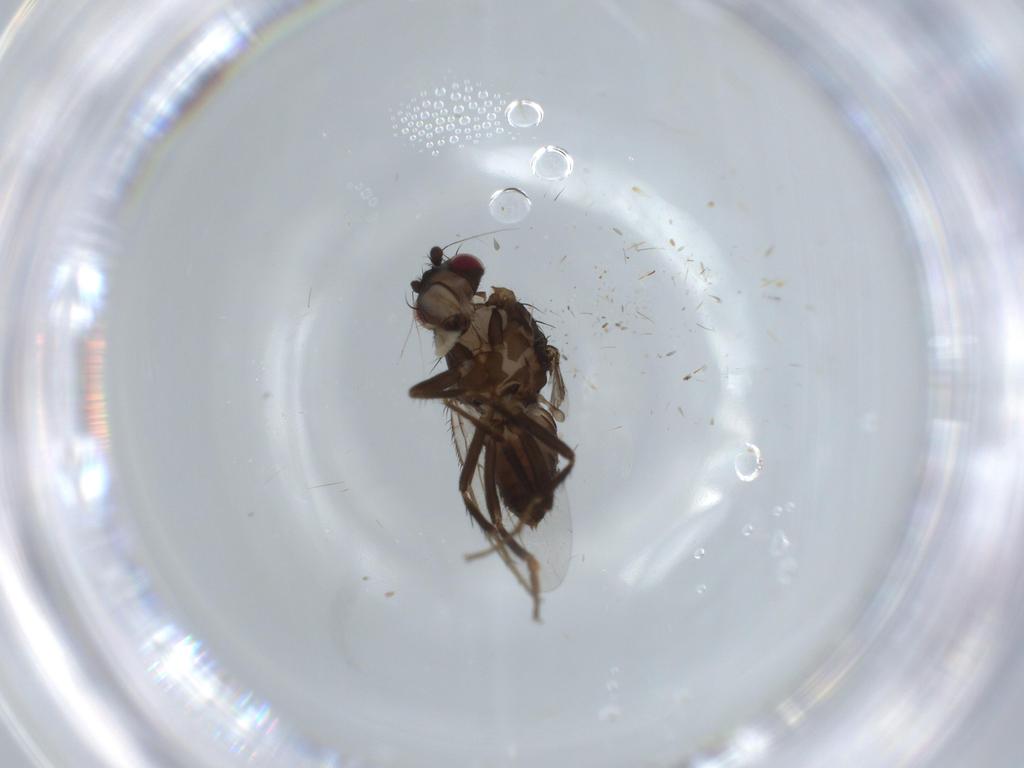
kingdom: Animalia
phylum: Arthropoda
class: Insecta
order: Diptera
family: Sphaeroceridae
